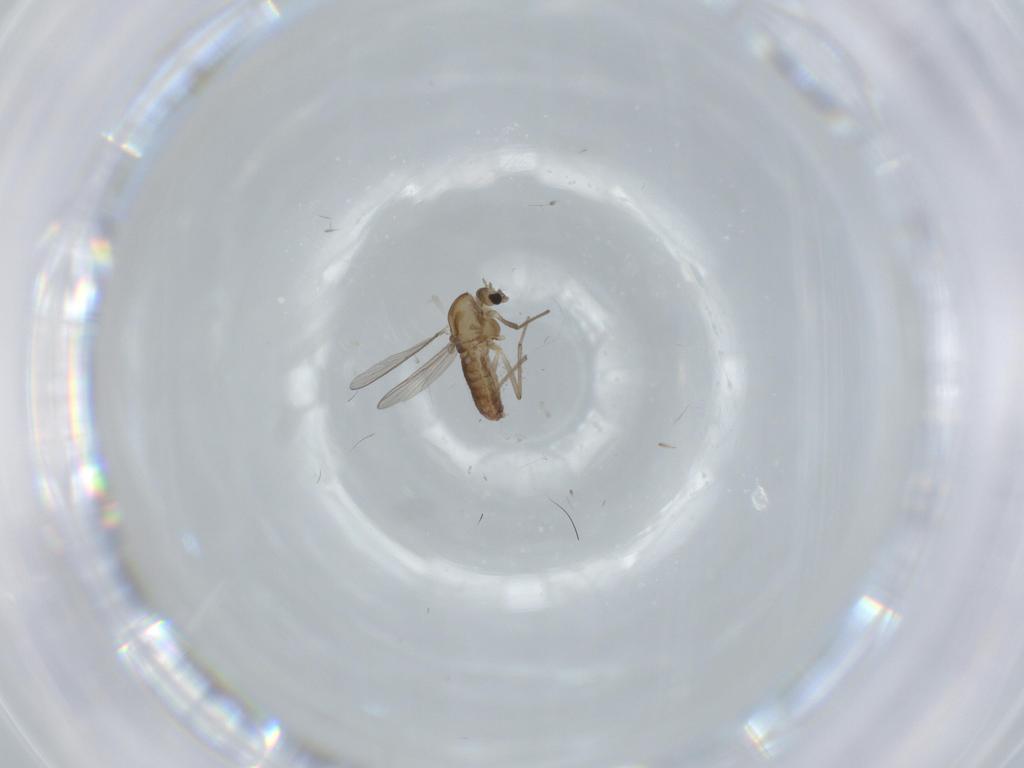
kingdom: Animalia
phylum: Arthropoda
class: Insecta
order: Diptera
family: Chironomidae
